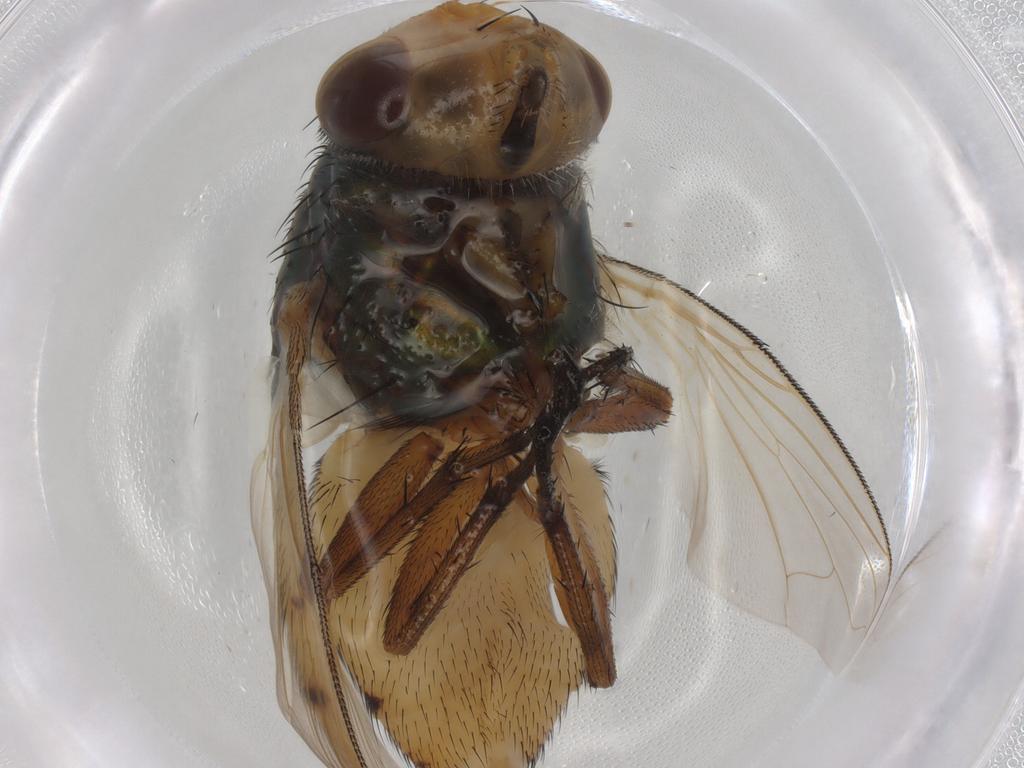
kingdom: Animalia
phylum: Arthropoda
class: Insecta
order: Diptera
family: Calliphoridae
